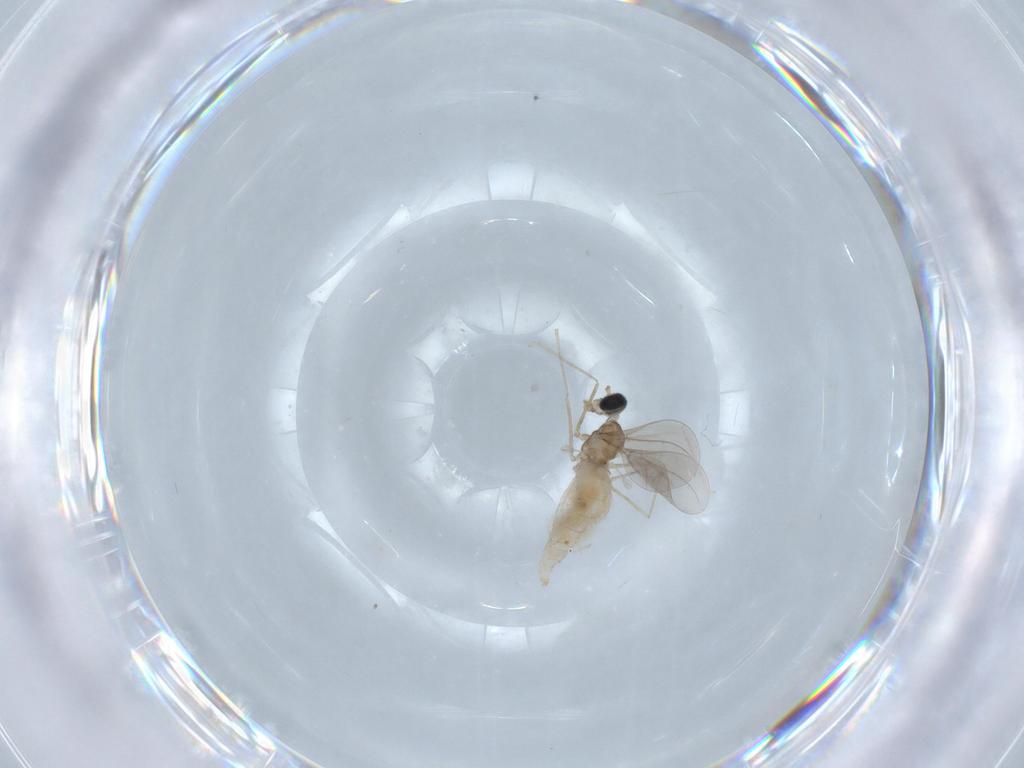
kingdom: Animalia
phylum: Arthropoda
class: Insecta
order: Diptera
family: Cecidomyiidae
